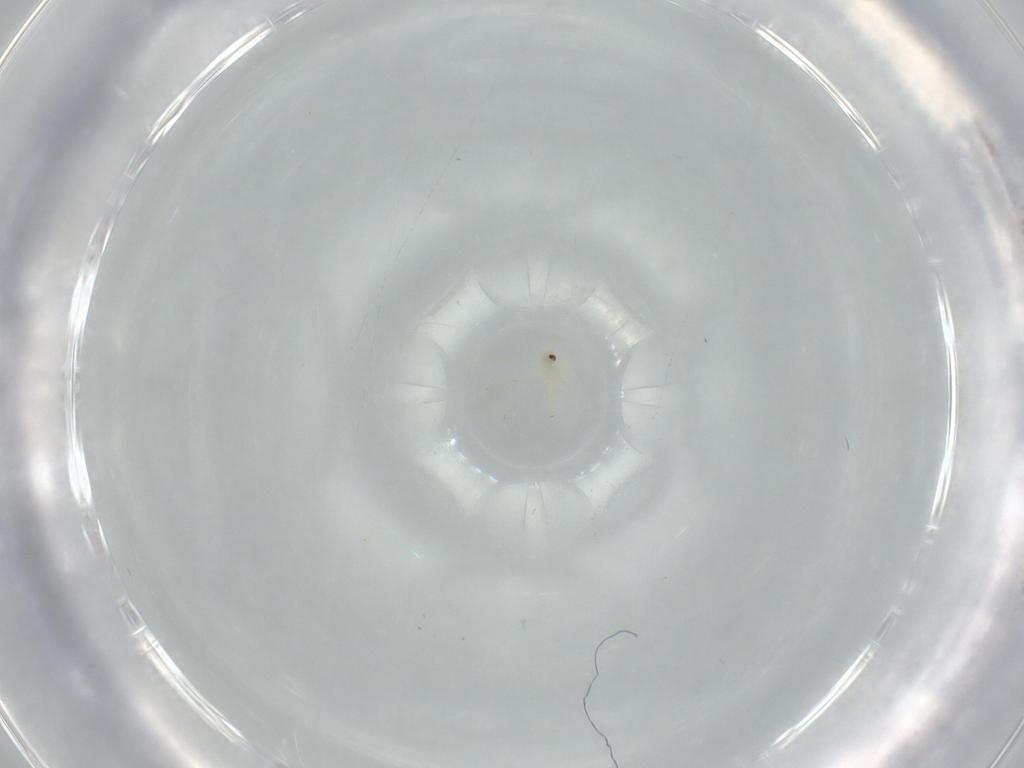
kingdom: Animalia
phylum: Arthropoda
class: Insecta
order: Hemiptera
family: Aleyrodidae
